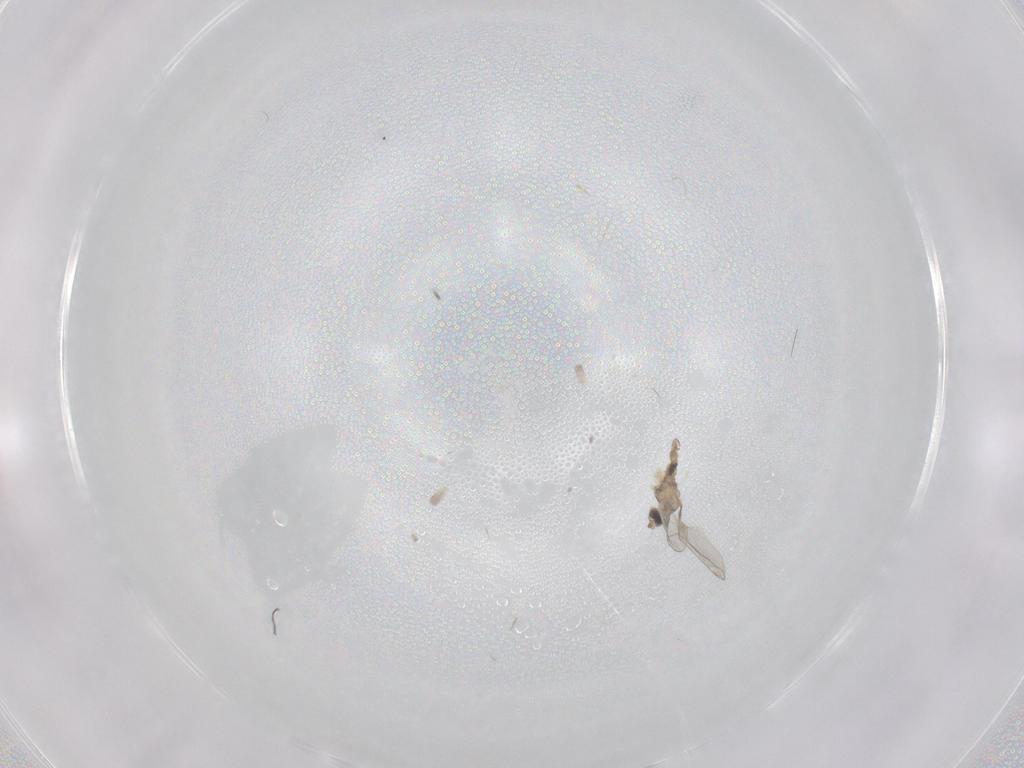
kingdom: Animalia
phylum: Arthropoda
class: Insecta
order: Diptera
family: Cecidomyiidae
